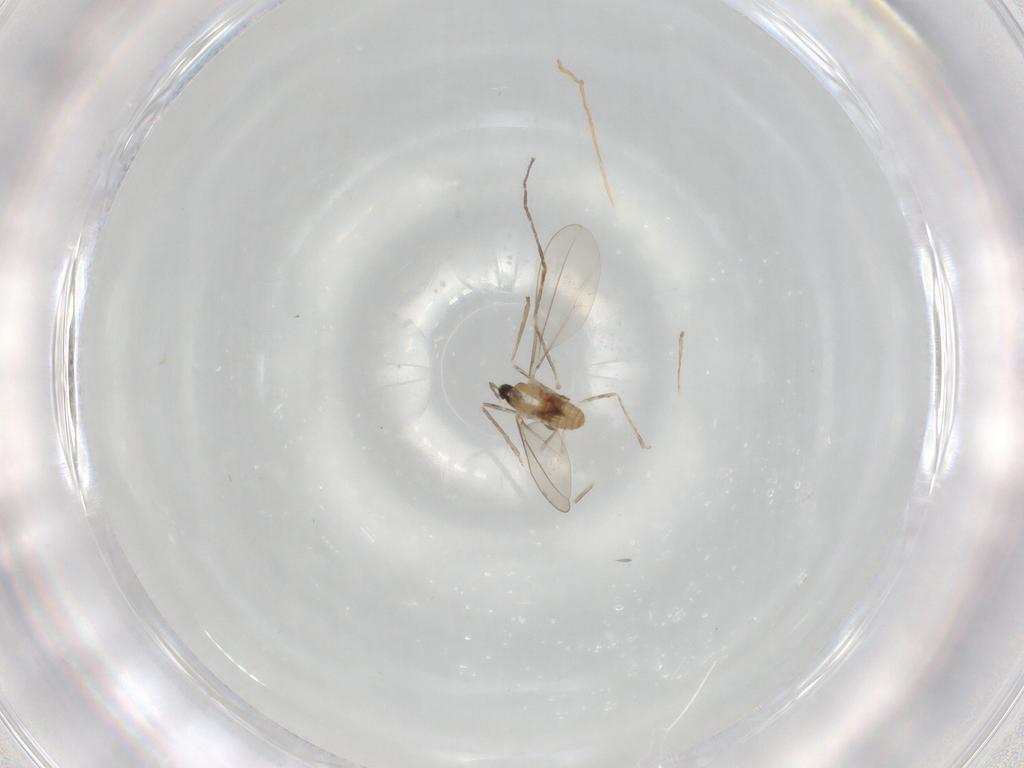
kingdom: Animalia
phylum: Arthropoda
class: Insecta
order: Diptera
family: Cecidomyiidae
